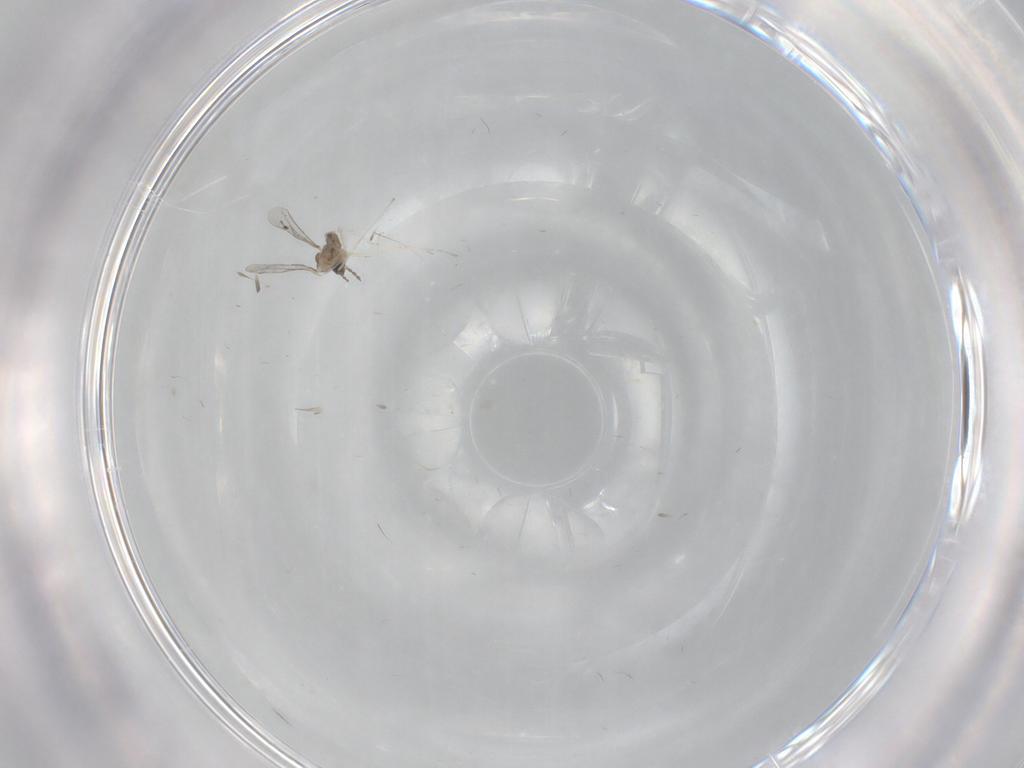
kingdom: Animalia
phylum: Arthropoda
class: Insecta
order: Diptera
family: Cecidomyiidae
